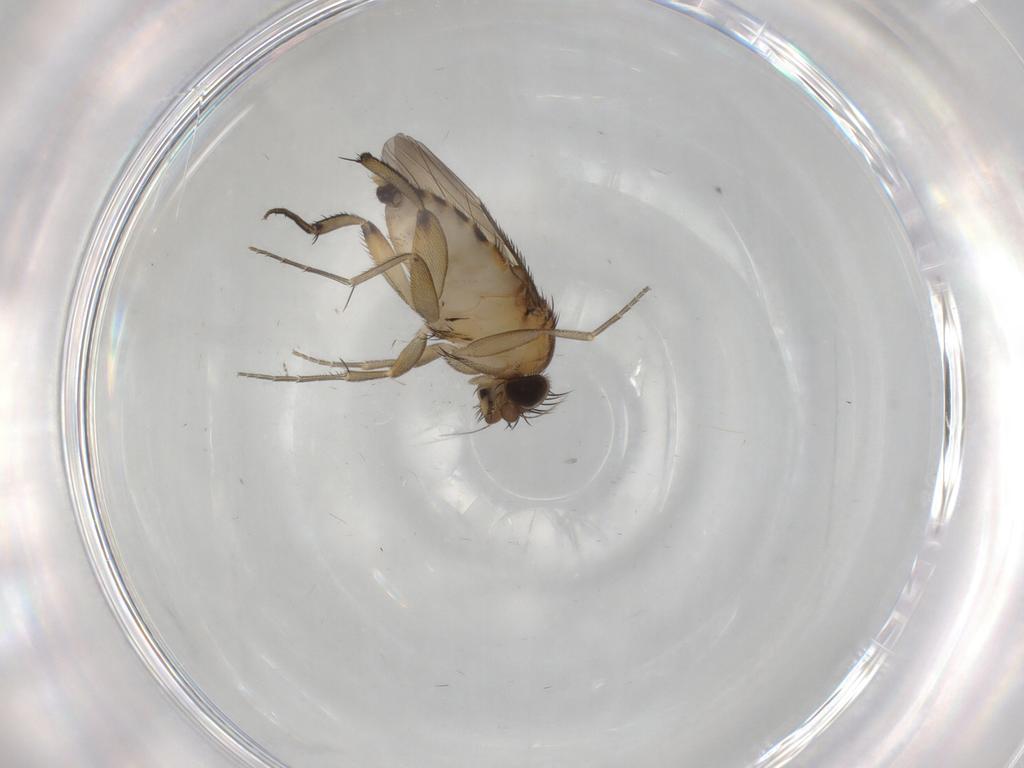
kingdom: Animalia
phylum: Arthropoda
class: Insecta
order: Diptera
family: Phoridae
